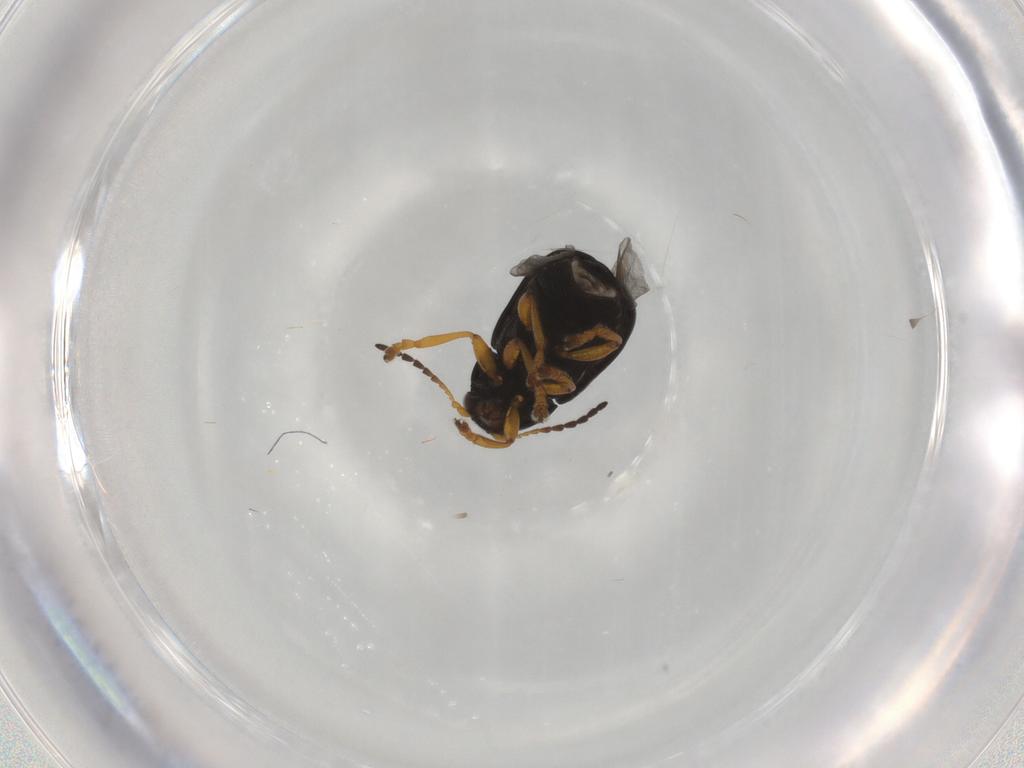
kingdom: Animalia
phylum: Arthropoda
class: Insecta
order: Coleoptera
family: Chrysomelidae
